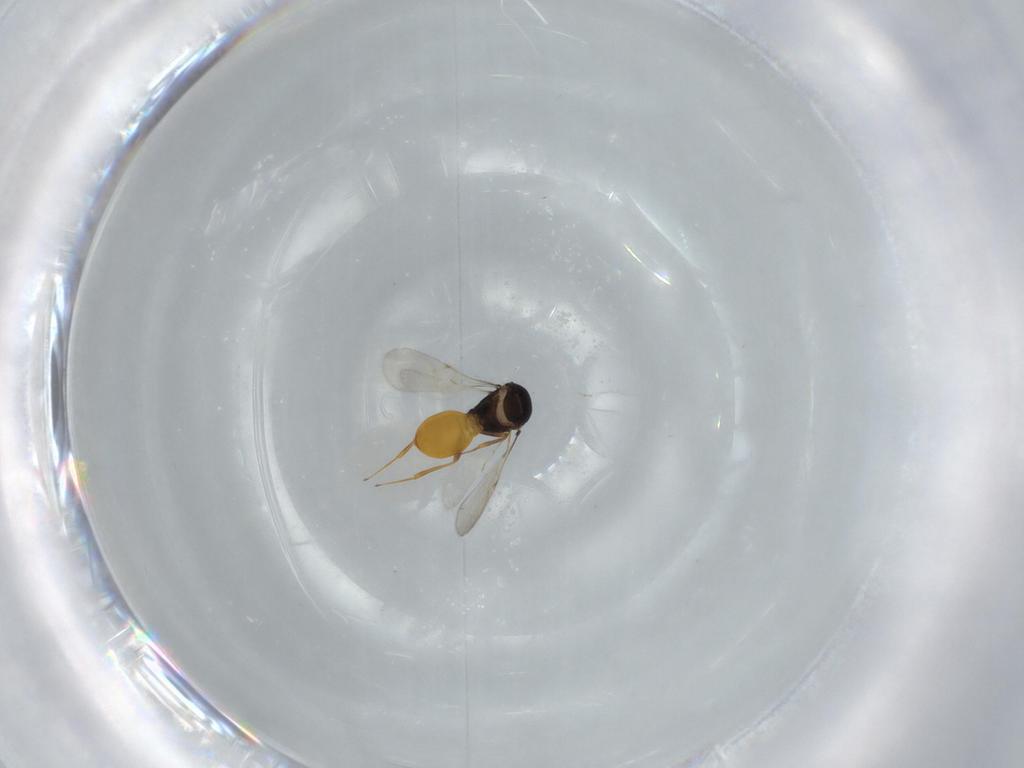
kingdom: Animalia
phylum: Arthropoda
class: Insecta
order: Hymenoptera
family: Scelionidae
